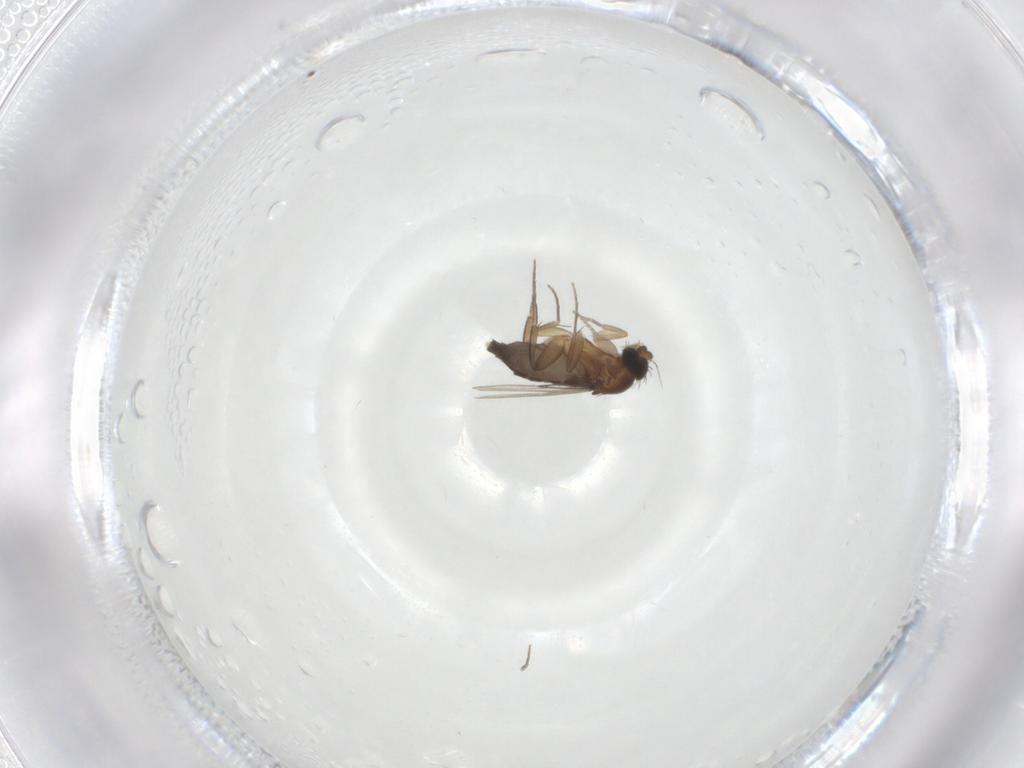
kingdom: Animalia
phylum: Arthropoda
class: Insecta
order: Diptera
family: Phoridae
